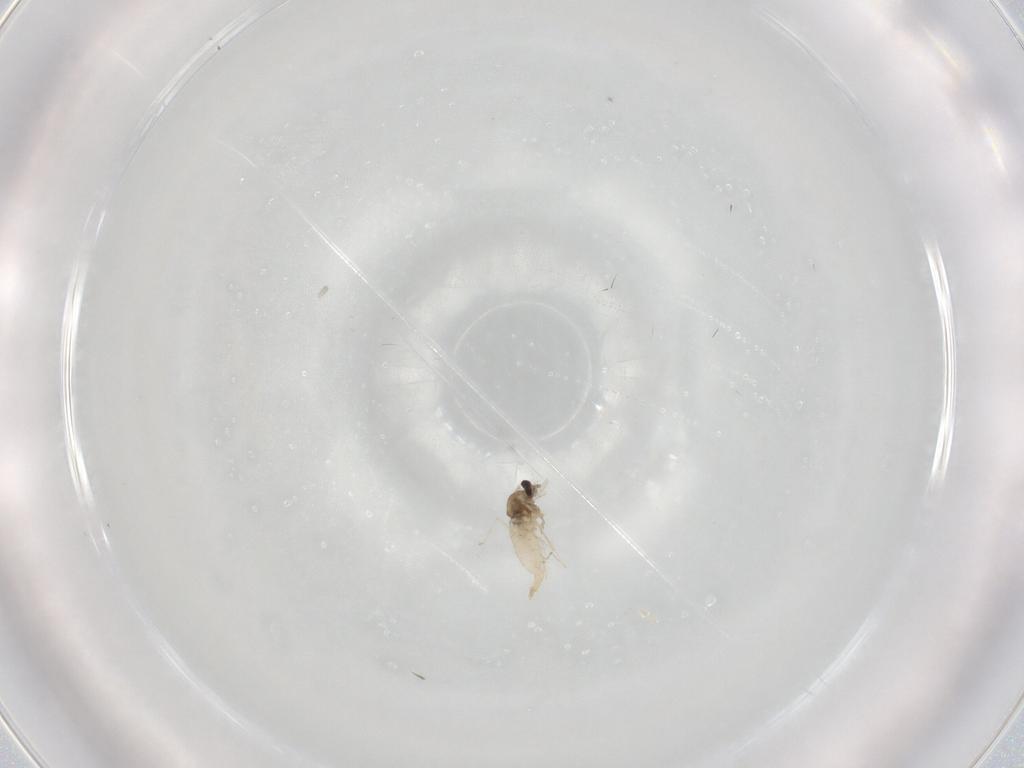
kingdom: Animalia
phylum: Arthropoda
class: Insecta
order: Diptera
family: Cecidomyiidae
